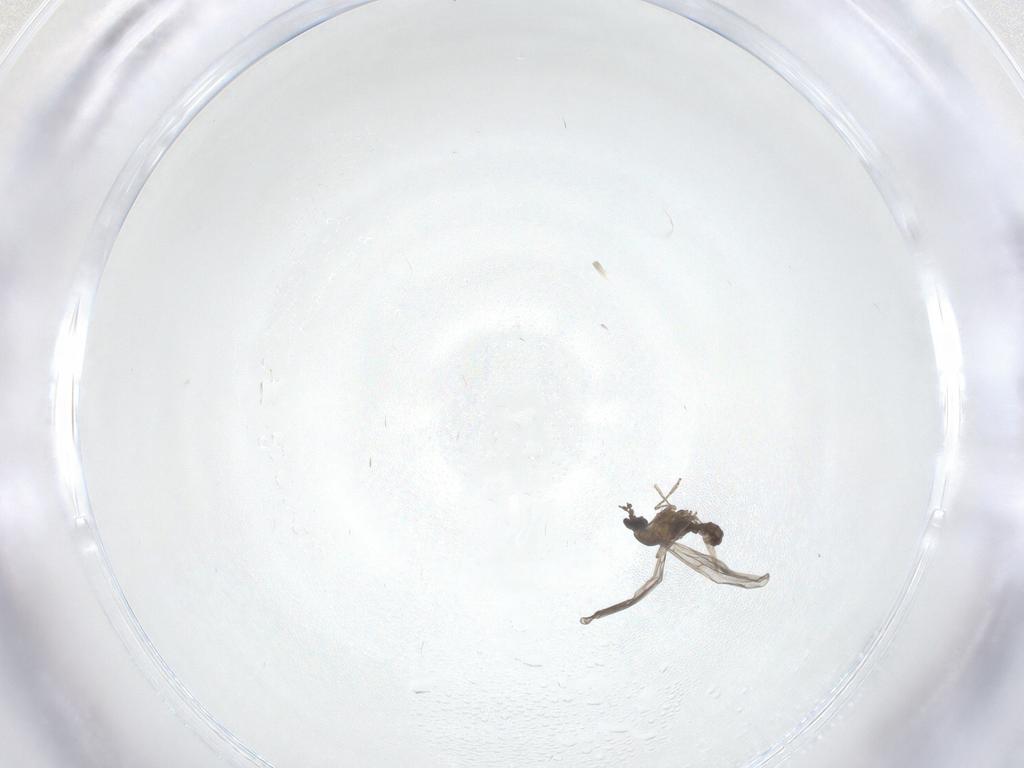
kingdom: Animalia
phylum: Arthropoda
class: Insecta
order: Diptera
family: Cecidomyiidae
